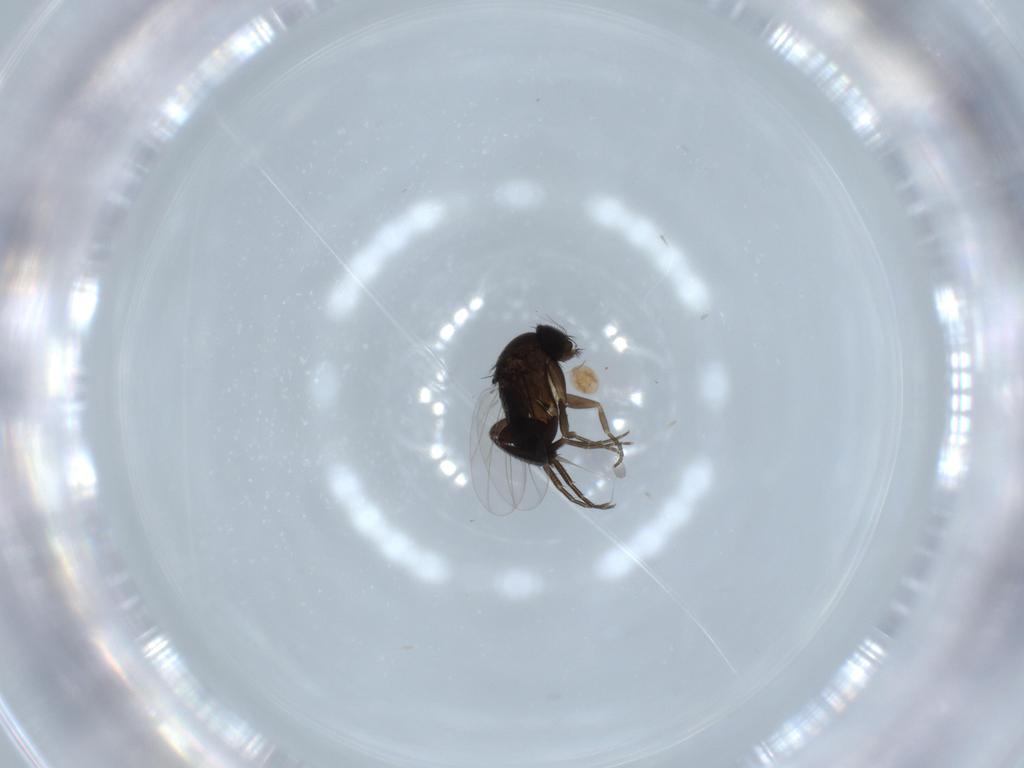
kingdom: Animalia
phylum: Arthropoda
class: Insecta
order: Diptera
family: Phoridae
